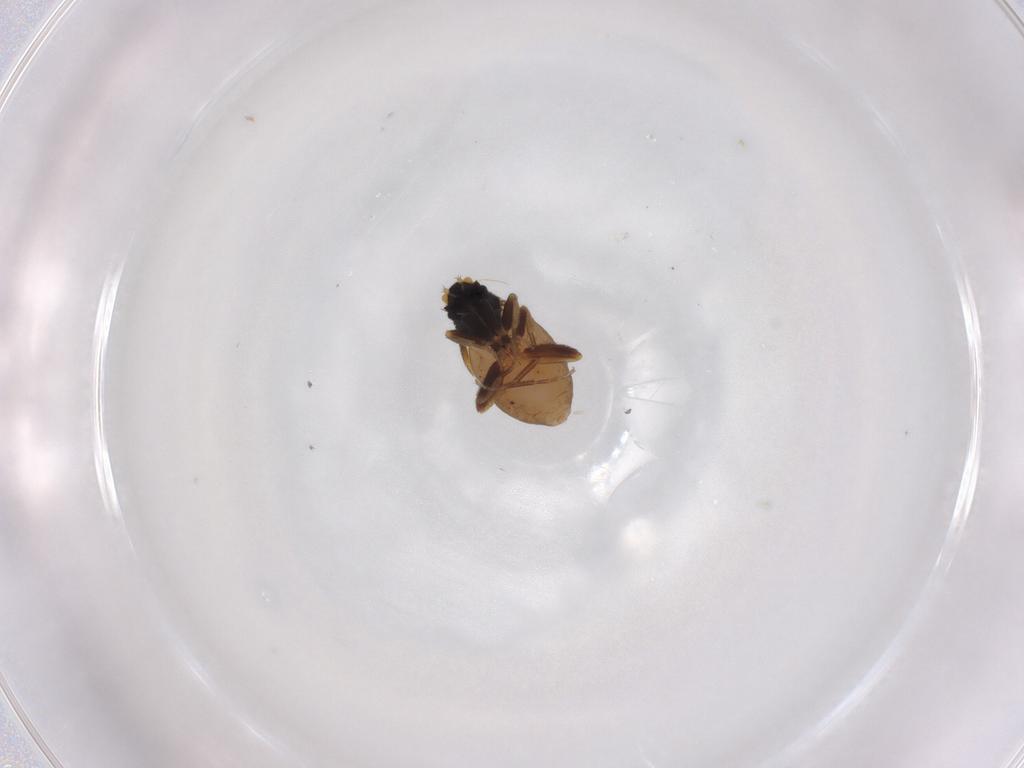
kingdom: Animalia
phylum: Arthropoda
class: Insecta
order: Diptera
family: Phoridae
